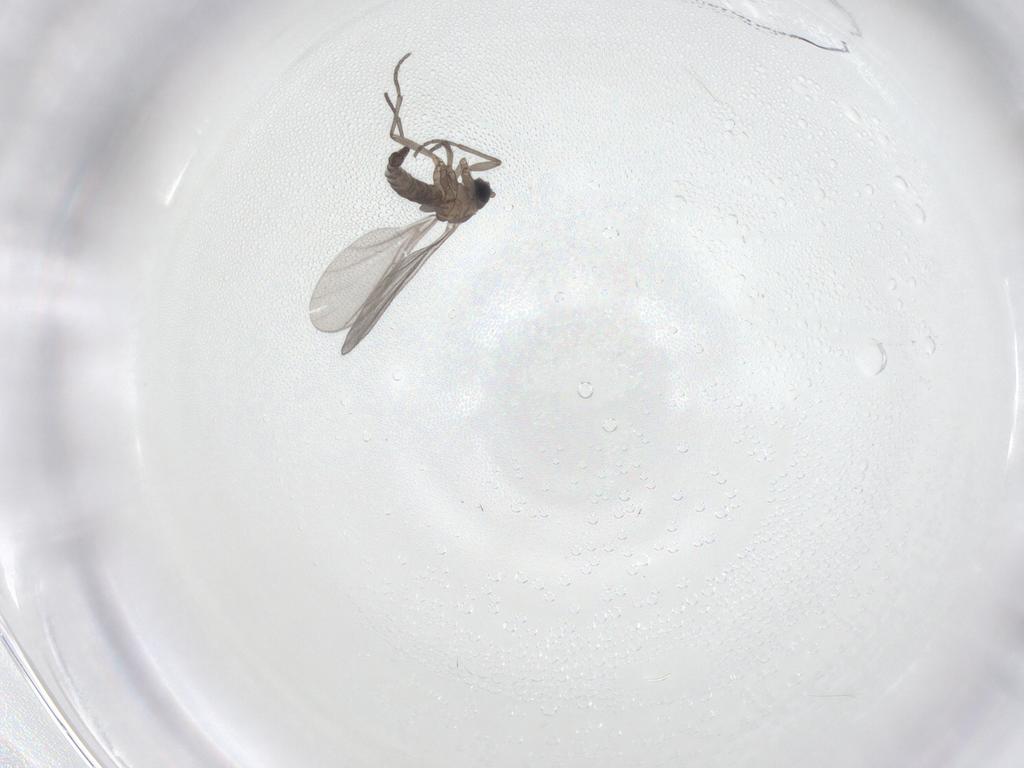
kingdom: Animalia
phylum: Arthropoda
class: Insecta
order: Diptera
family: Sciaridae
